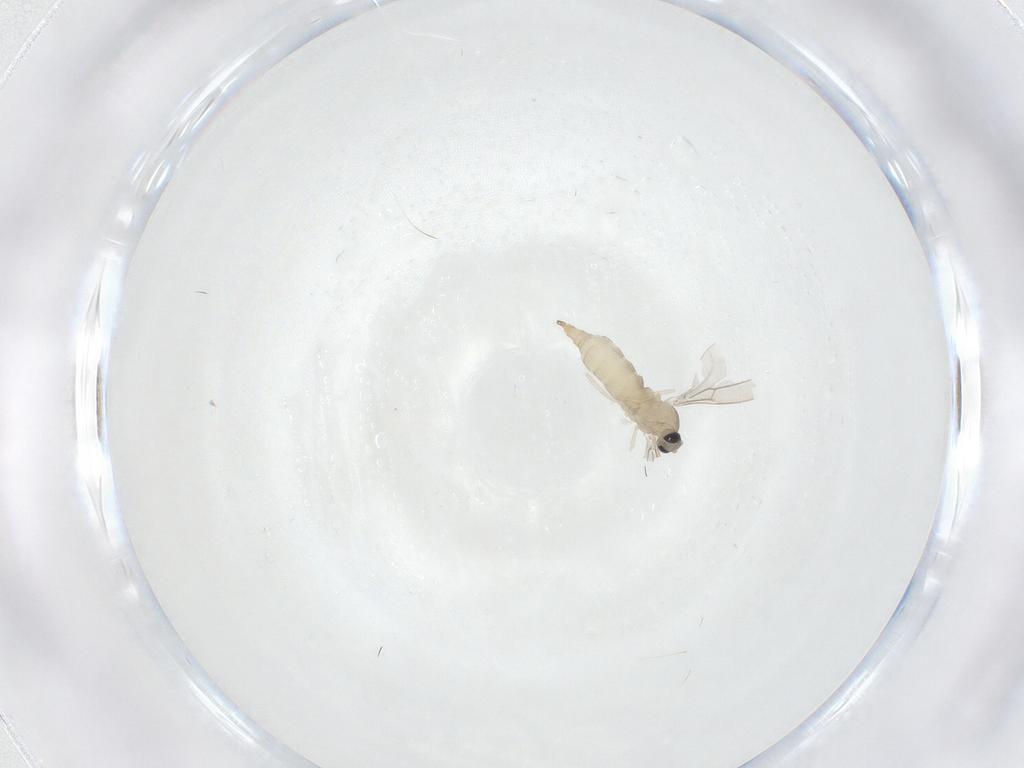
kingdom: Animalia
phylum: Arthropoda
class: Insecta
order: Diptera
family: Cecidomyiidae
